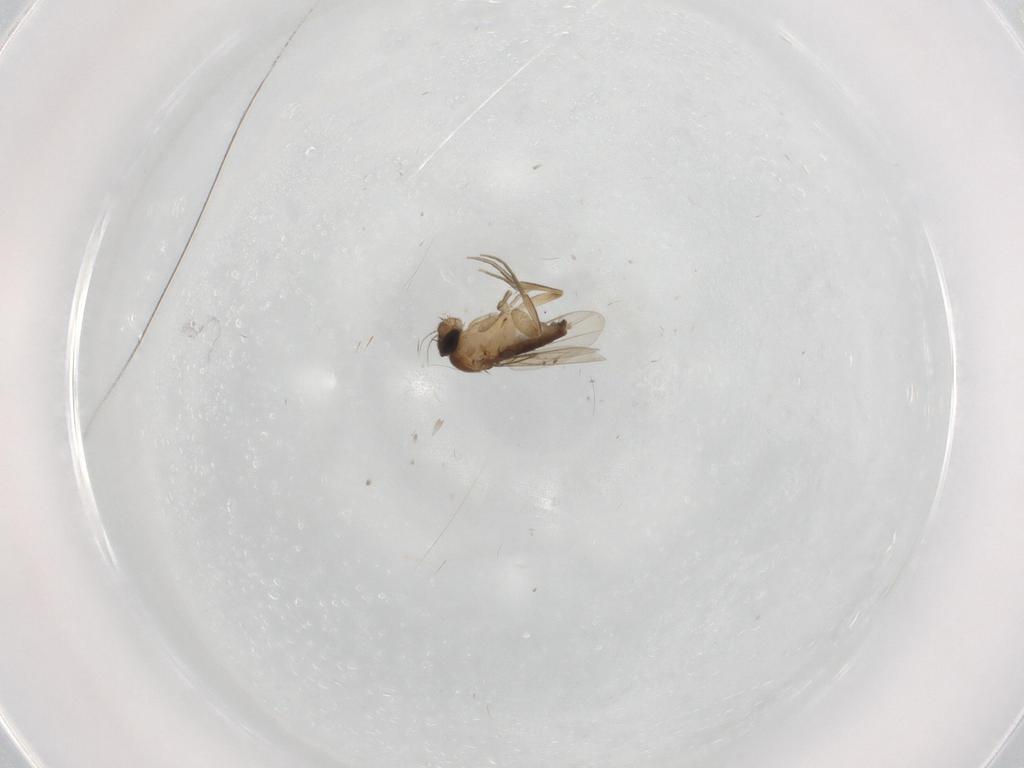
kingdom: Animalia
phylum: Arthropoda
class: Insecta
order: Diptera
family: Phoridae
